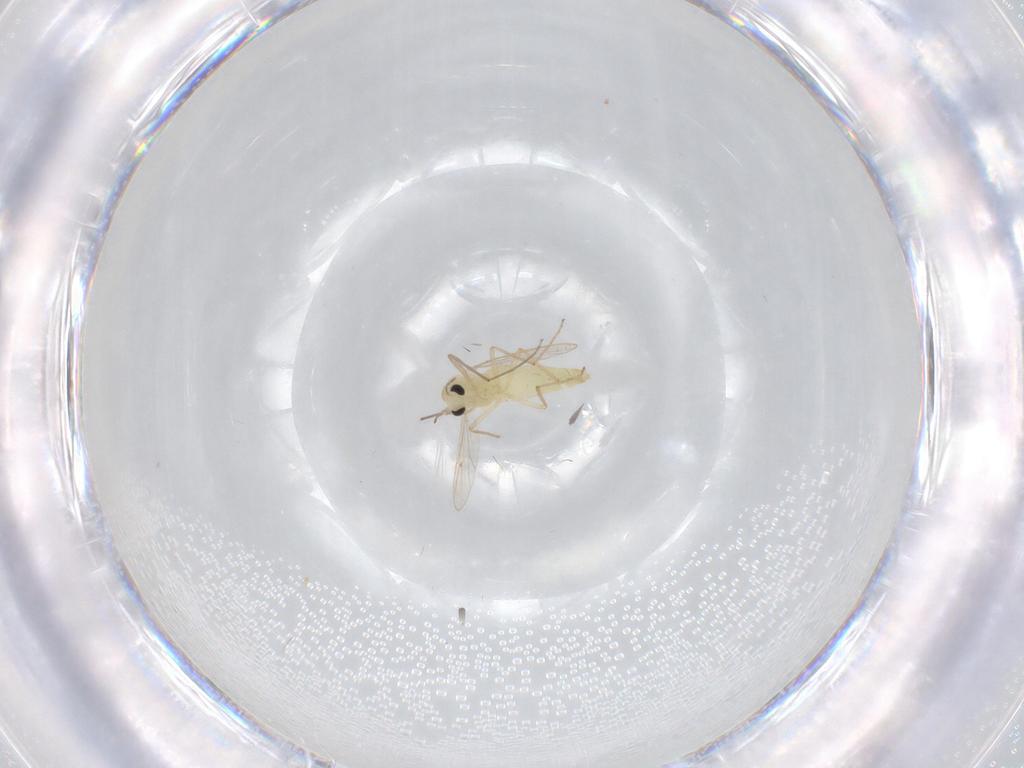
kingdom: Animalia
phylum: Arthropoda
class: Insecta
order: Diptera
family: Chironomidae
